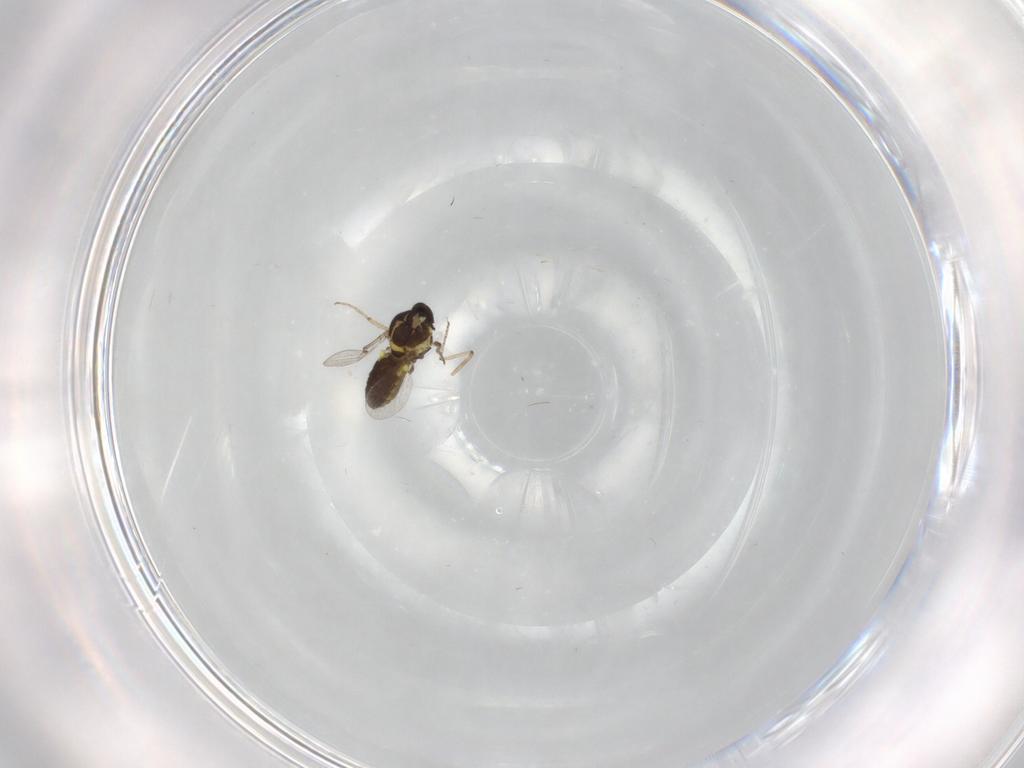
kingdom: Animalia
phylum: Arthropoda
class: Insecta
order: Diptera
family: Ceratopogonidae
